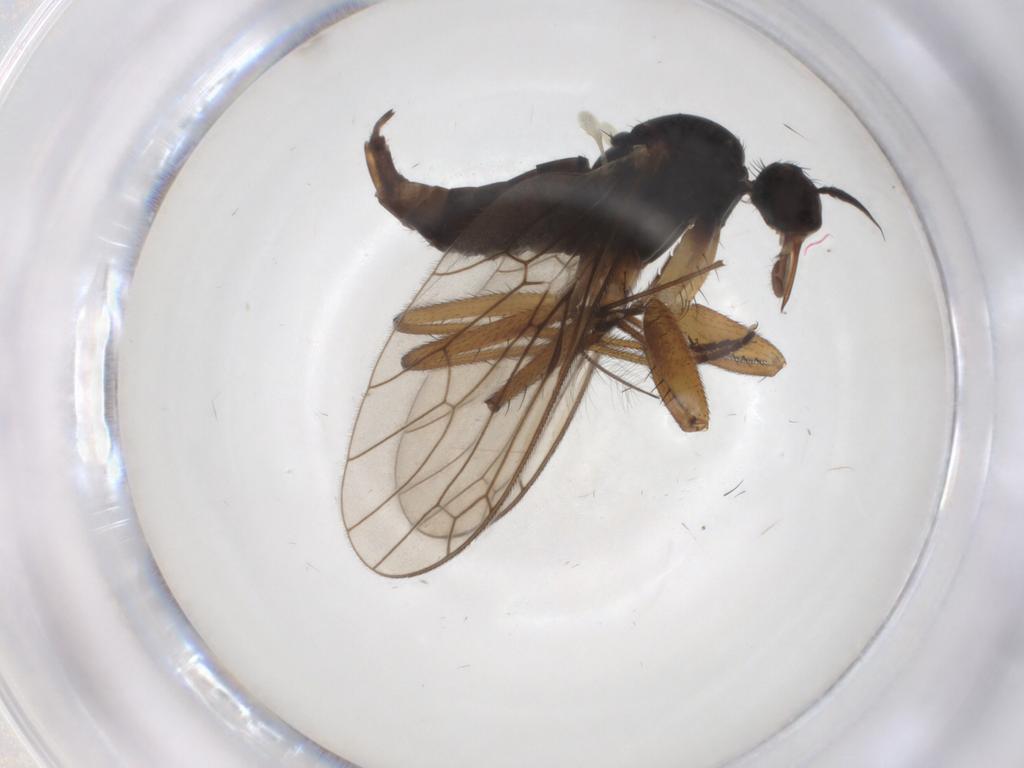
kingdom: Animalia
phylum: Arthropoda
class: Insecta
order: Diptera
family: Chironomidae
